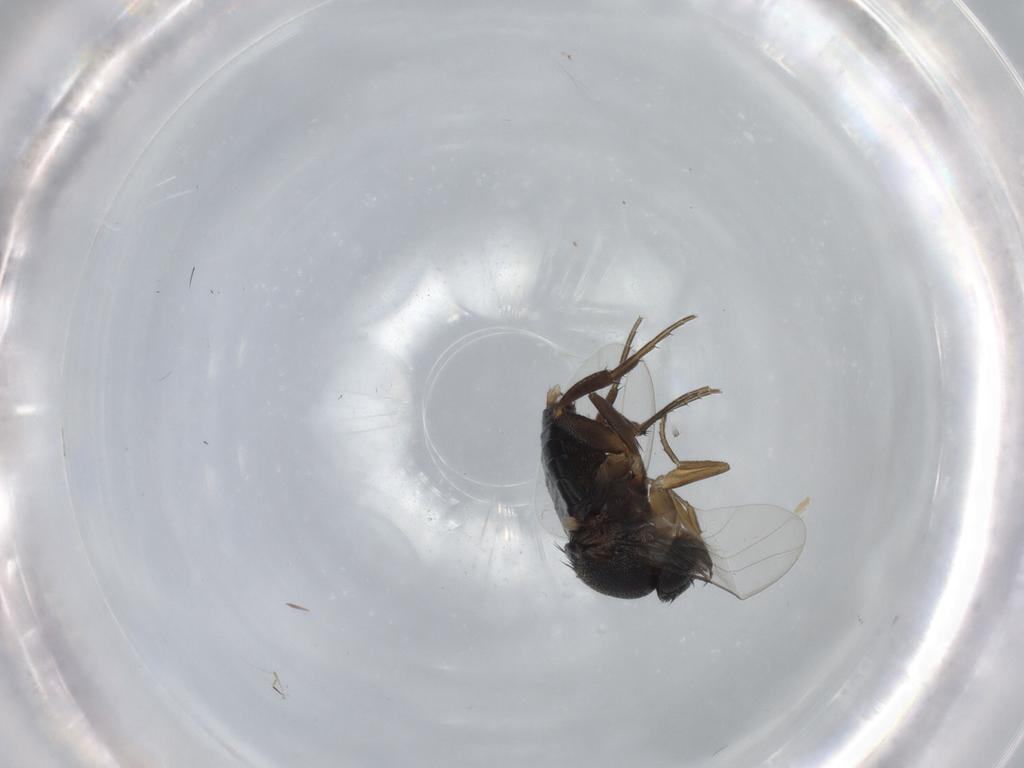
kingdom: Animalia
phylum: Arthropoda
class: Insecta
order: Diptera
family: Phoridae
